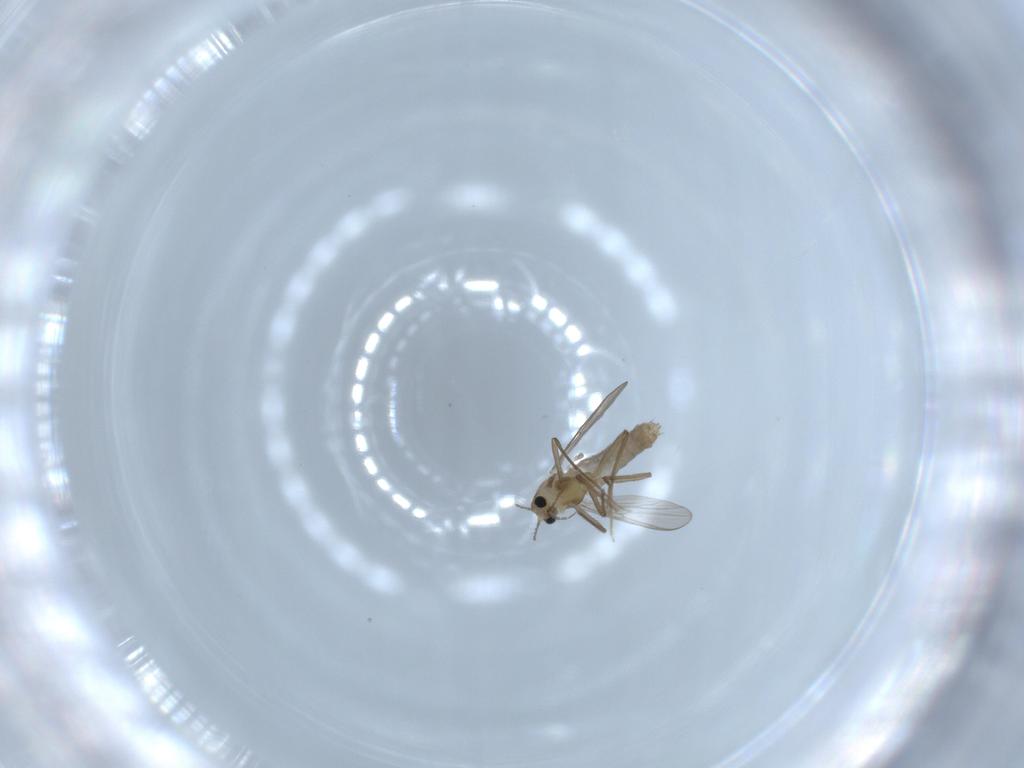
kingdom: Animalia
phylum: Arthropoda
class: Insecta
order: Diptera
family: Chironomidae
